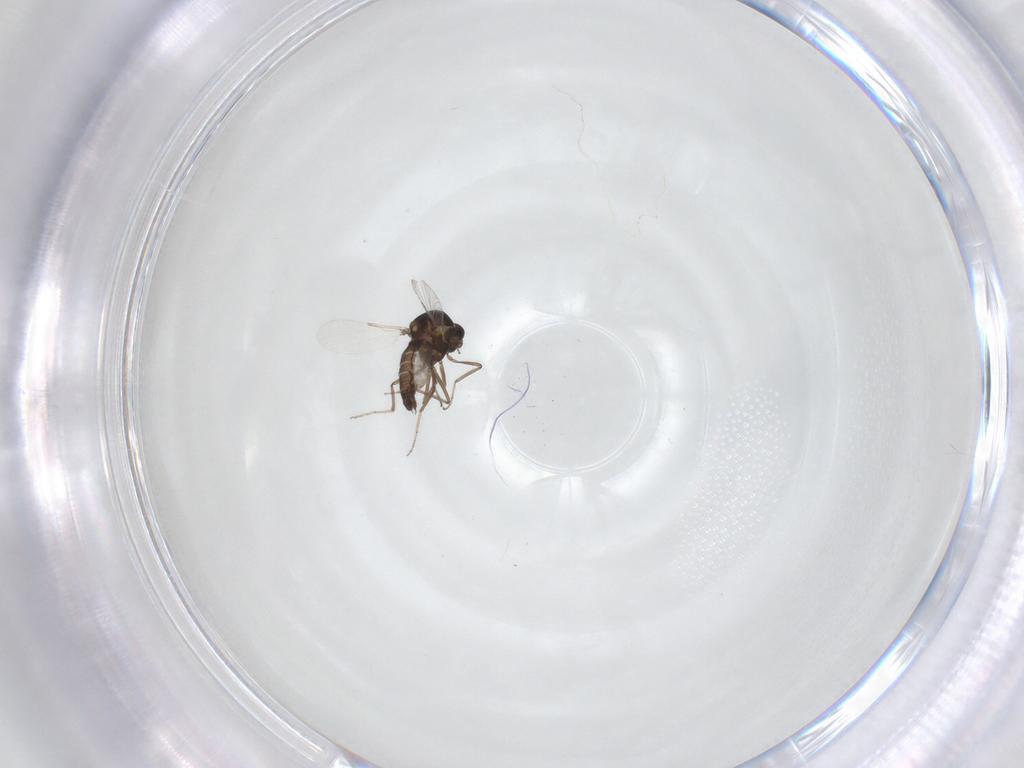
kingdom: Animalia
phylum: Arthropoda
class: Insecta
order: Diptera
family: Ceratopogonidae
